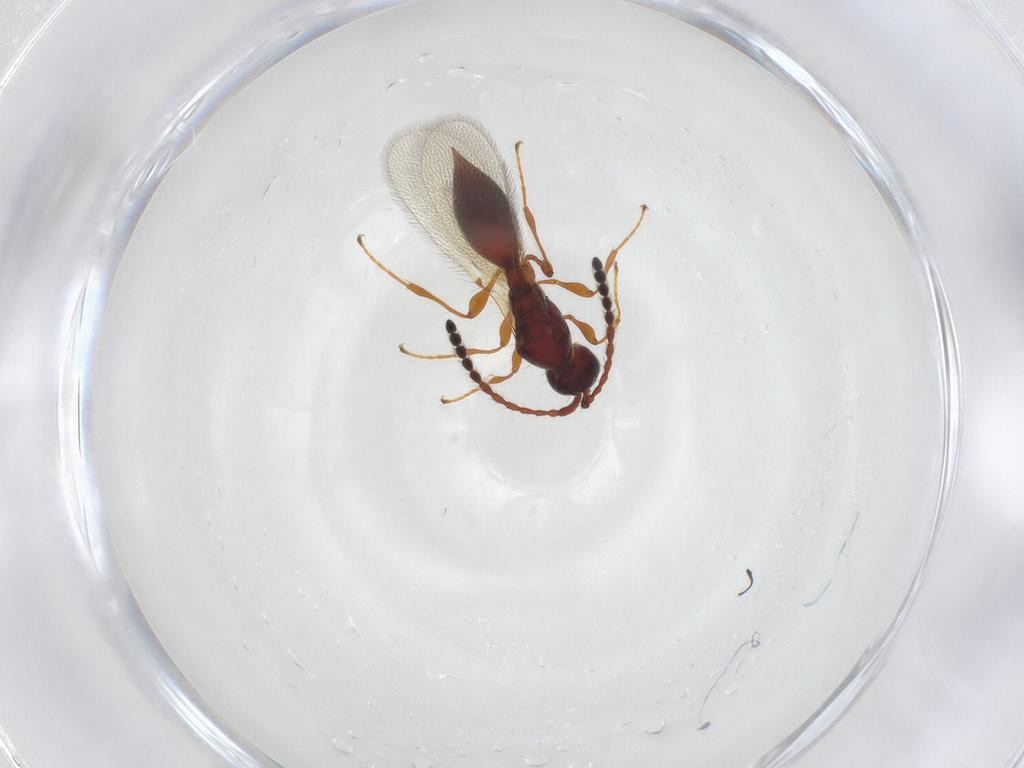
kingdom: Animalia
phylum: Arthropoda
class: Insecta
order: Hymenoptera
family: Diapriidae
